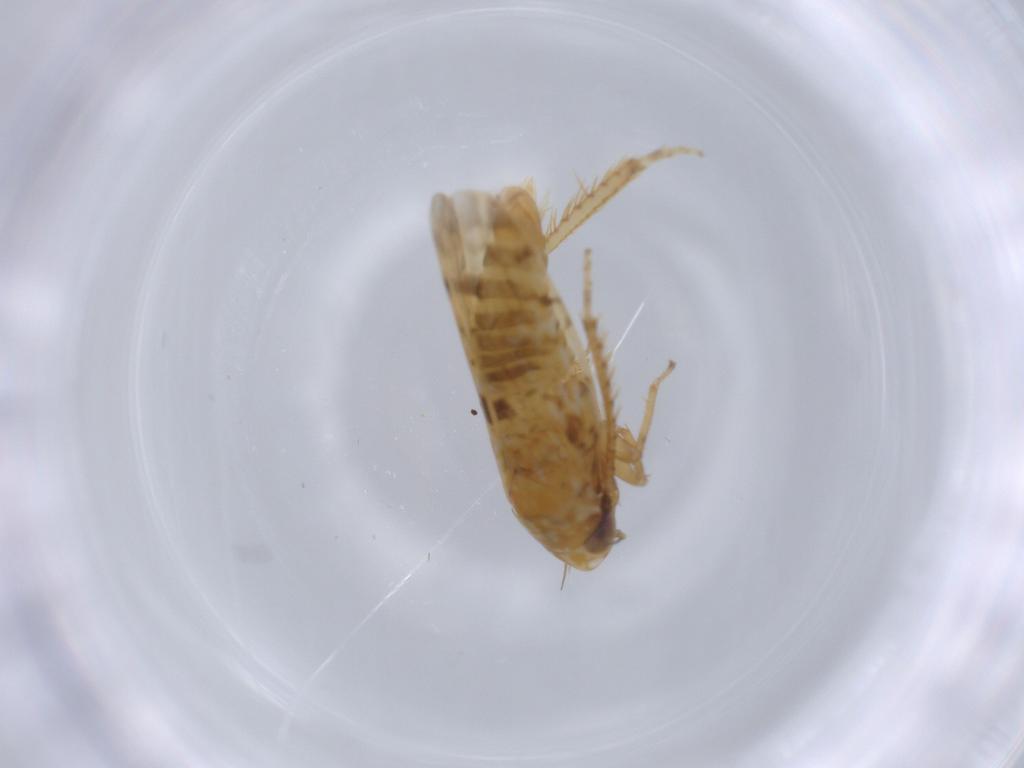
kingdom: Animalia
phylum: Arthropoda
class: Insecta
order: Hemiptera
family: Cicadellidae
